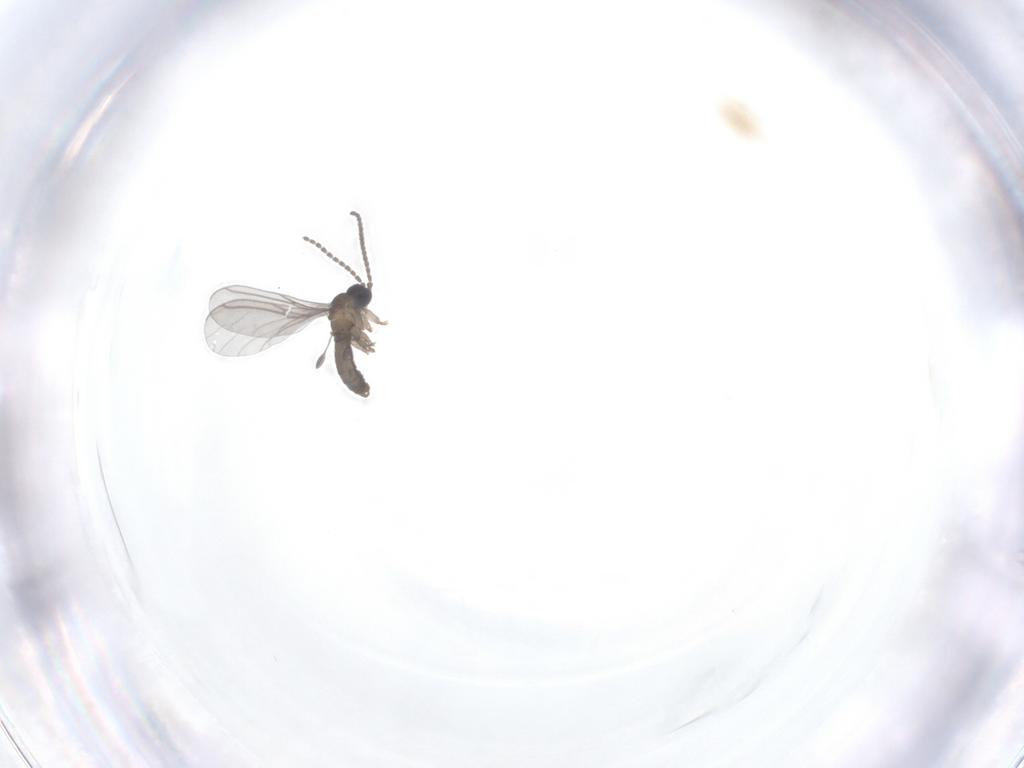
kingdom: Animalia
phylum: Arthropoda
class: Insecta
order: Diptera
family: Sciaridae
